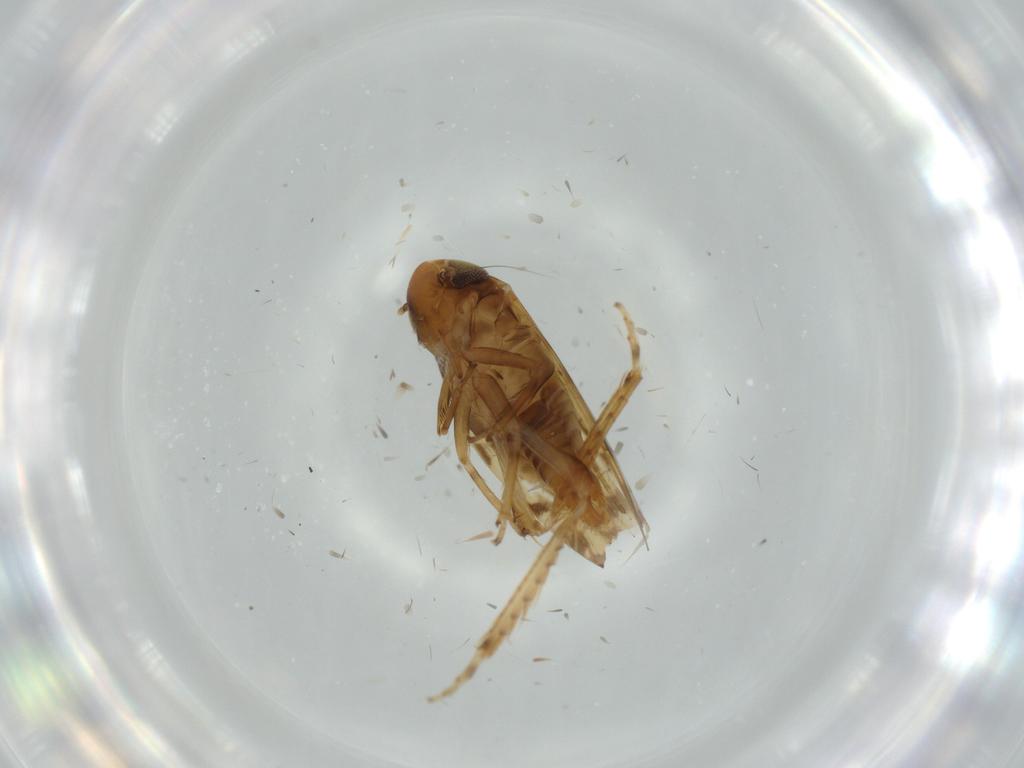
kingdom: Animalia
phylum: Arthropoda
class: Insecta
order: Hemiptera
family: Cicadellidae
